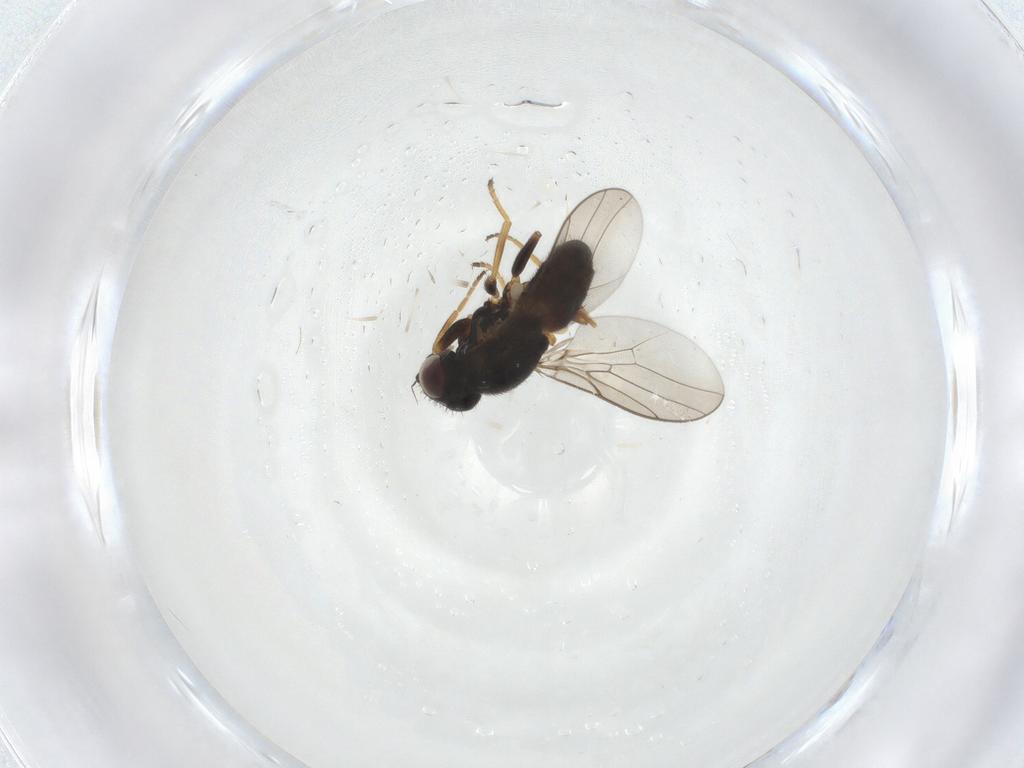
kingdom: Animalia
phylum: Arthropoda
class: Insecta
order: Diptera
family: Chloropidae
